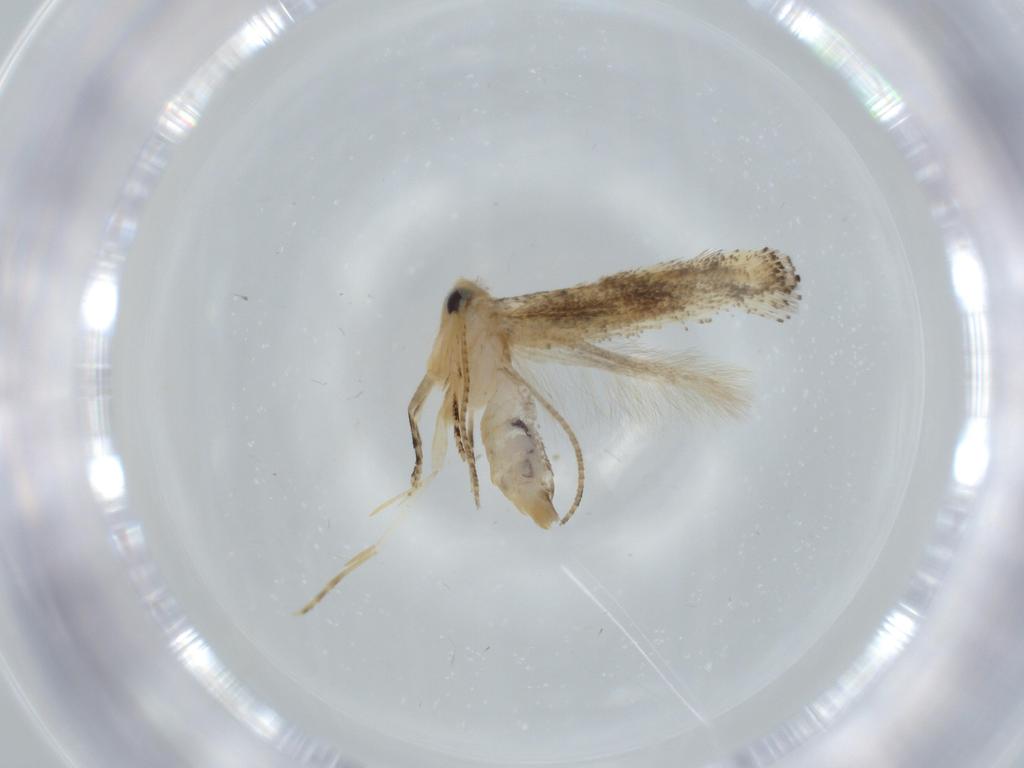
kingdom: Animalia
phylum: Arthropoda
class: Insecta
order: Lepidoptera
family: Bucculatricidae
